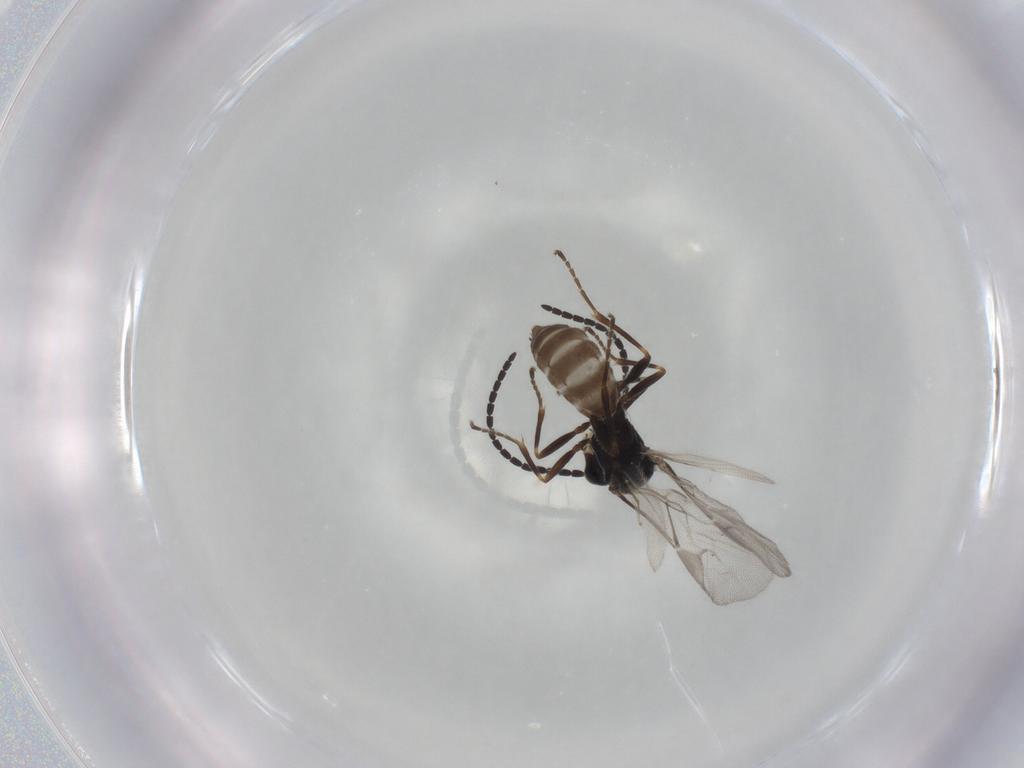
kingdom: Animalia
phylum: Arthropoda
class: Insecta
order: Hymenoptera
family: Braconidae
